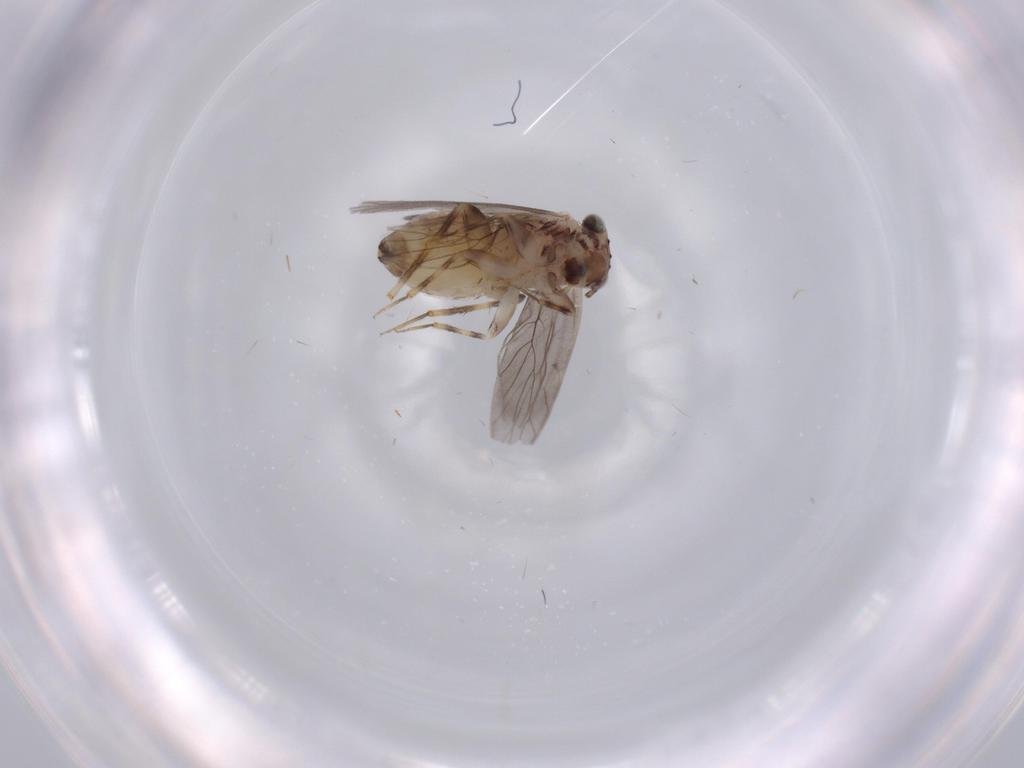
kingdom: Animalia
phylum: Arthropoda
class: Insecta
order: Psocodea
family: Lepidopsocidae
